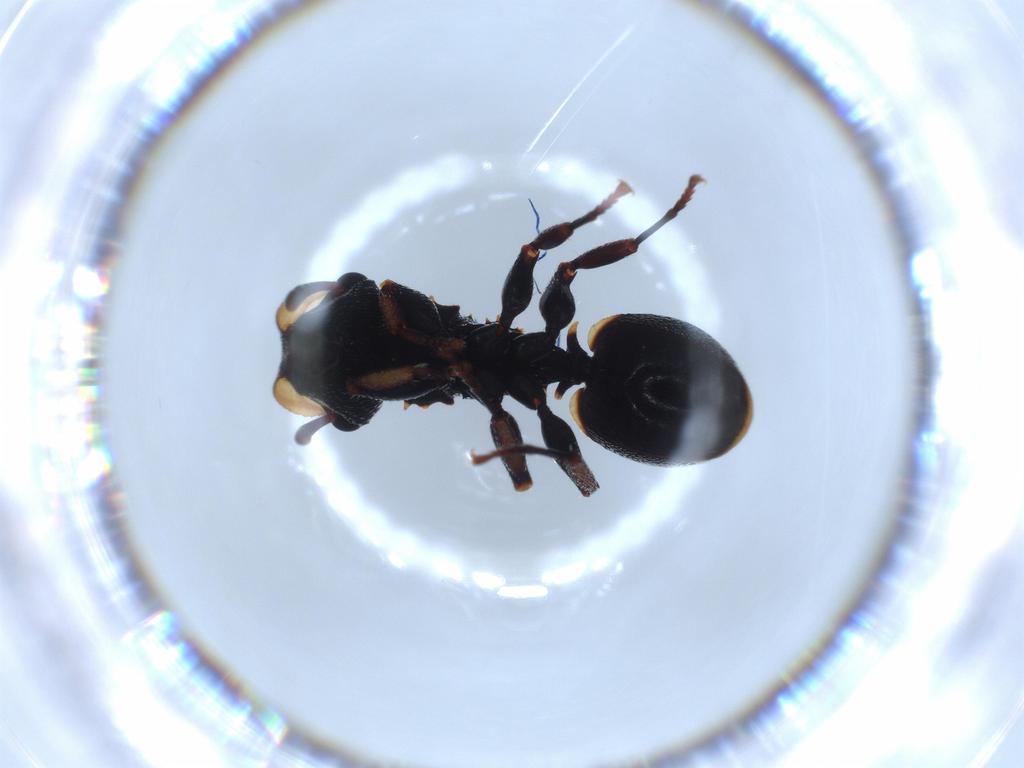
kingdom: Animalia
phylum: Arthropoda
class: Insecta
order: Hymenoptera
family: Formicidae
